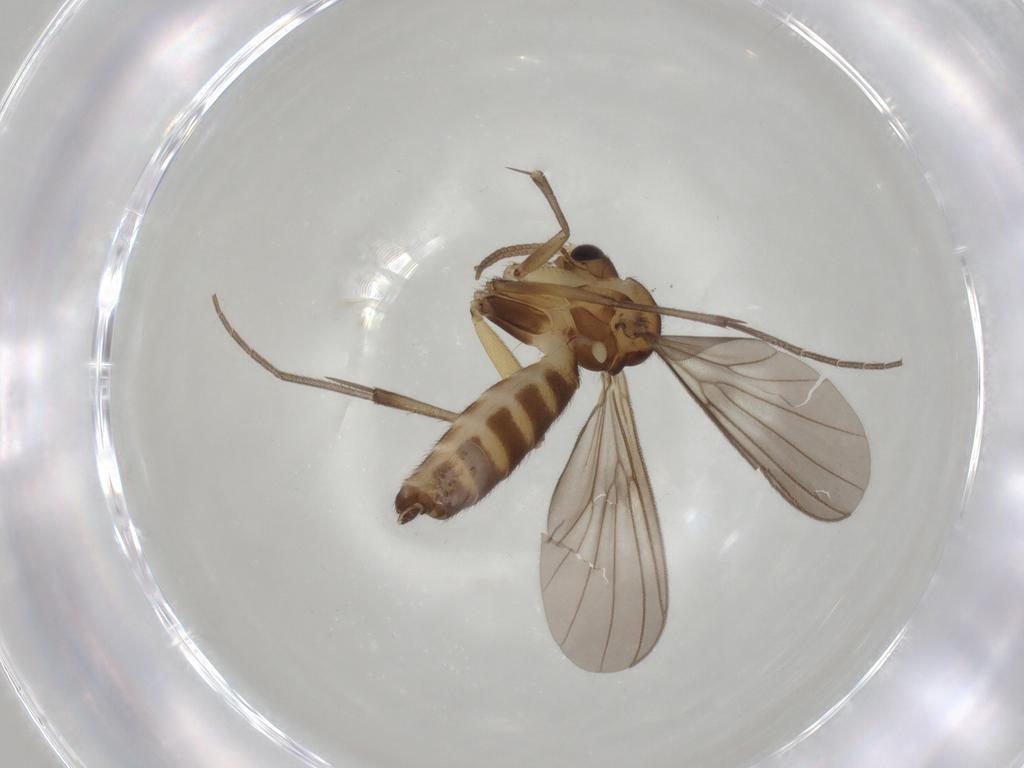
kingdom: Animalia
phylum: Arthropoda
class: Insecta
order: Diptera
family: Mycetophilidae
